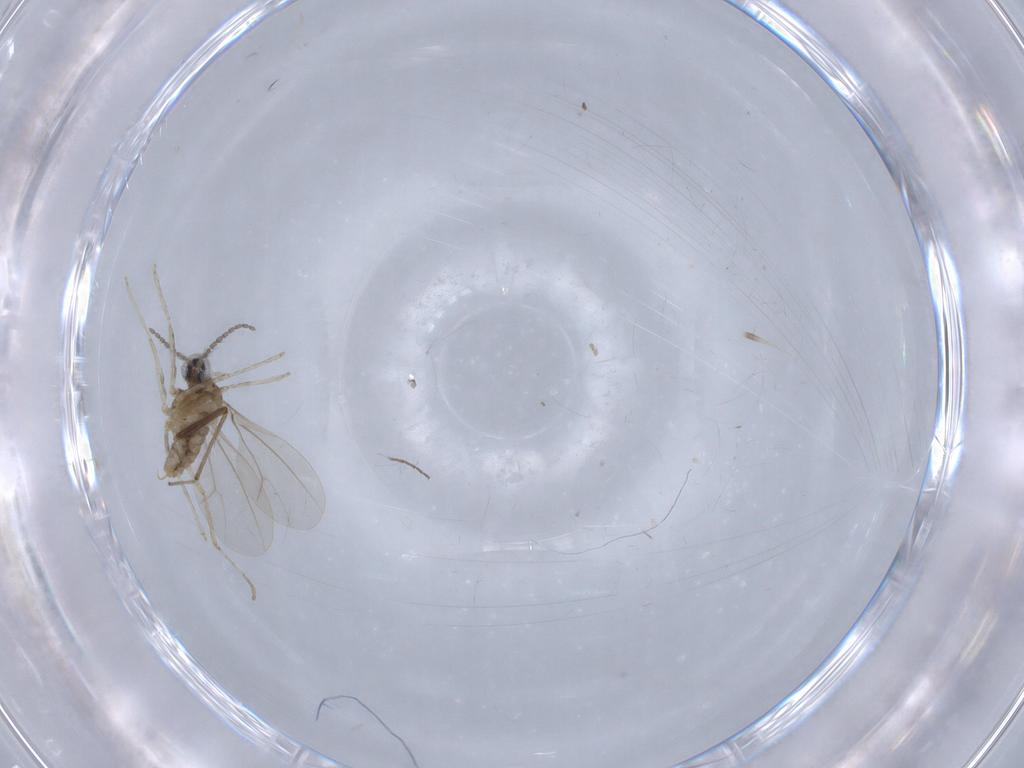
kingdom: Animalia
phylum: Arthropoda
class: Insecta
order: Diptera
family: Cecidomyiidae
